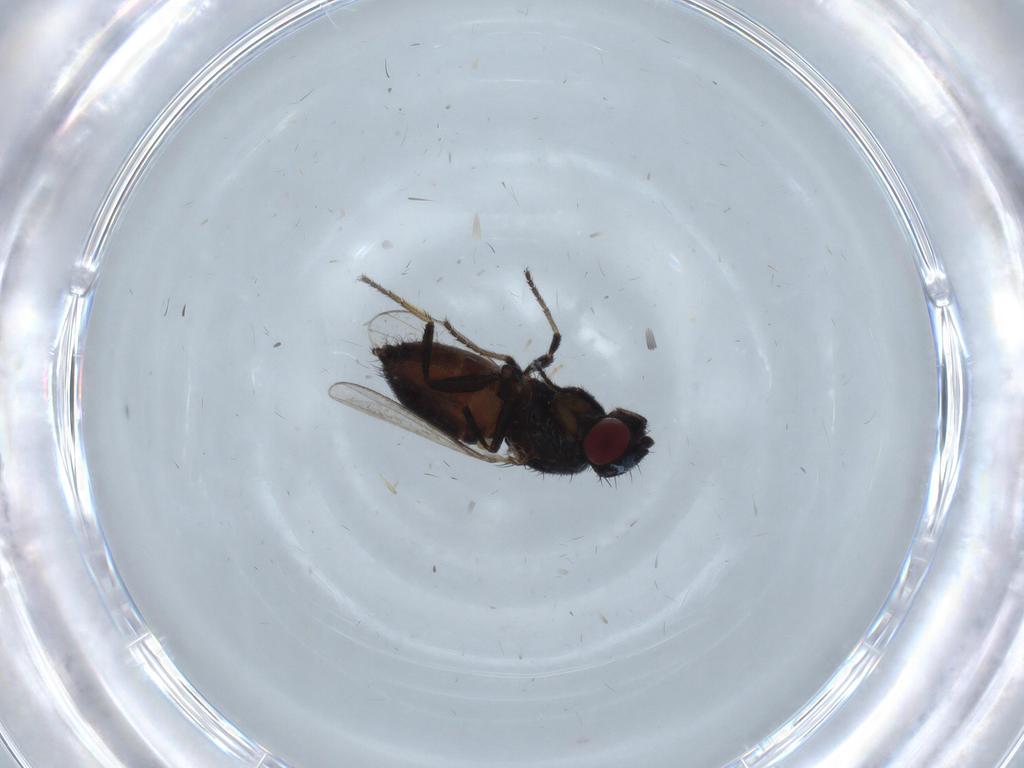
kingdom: Animalia
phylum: Arthropoda
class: Insecta
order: Diptera
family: Milichiidae
